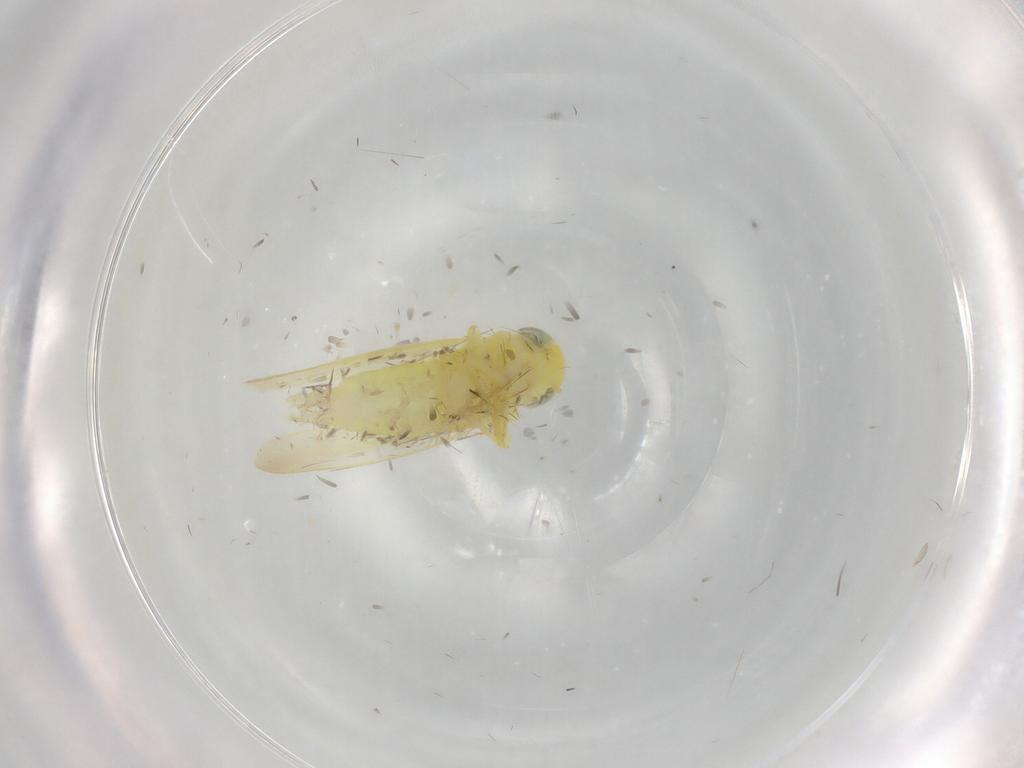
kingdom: Animalia
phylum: Arthropoda
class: Insecta
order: Hemiptera
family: Cicadellidae
